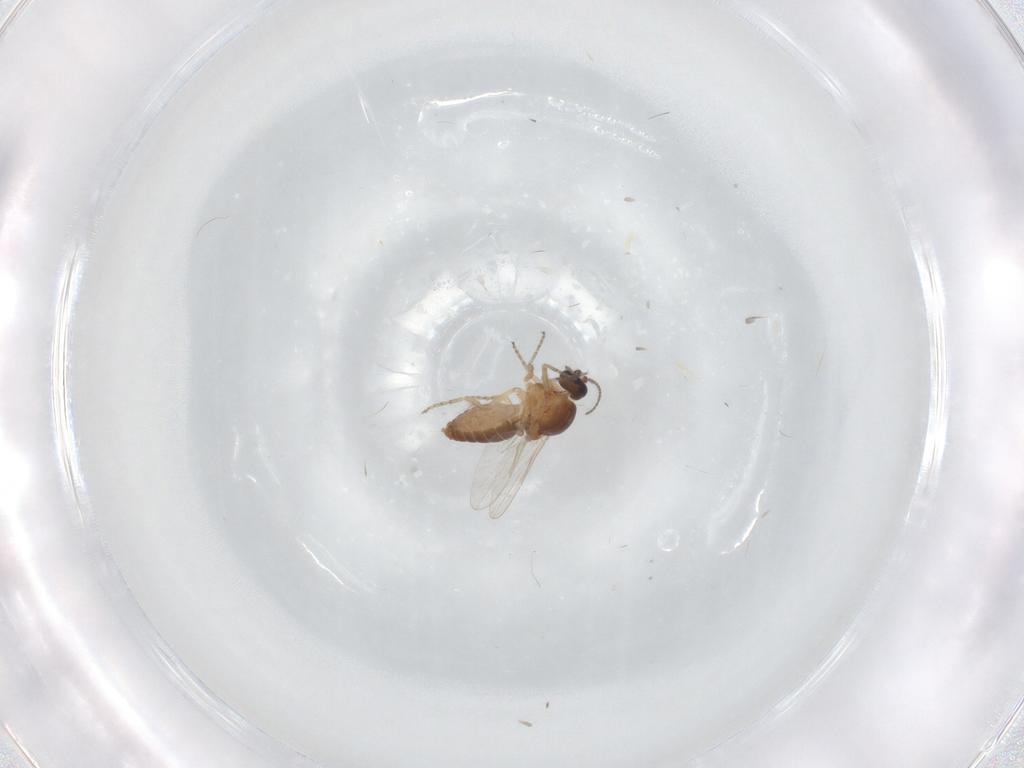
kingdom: Animalia
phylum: Arthropoda
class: Insecta
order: Diptera
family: Ceratopogonidae
